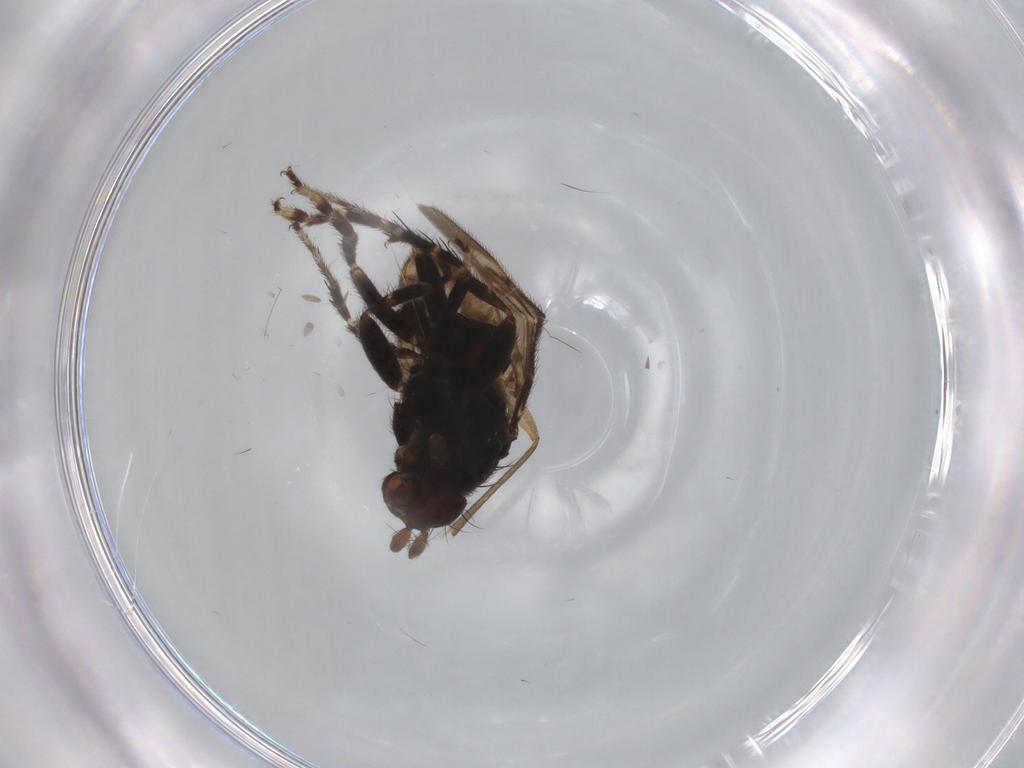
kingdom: Animalia
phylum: Arthropoda
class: Insecta
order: Diptera
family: Sphaeroceridae
